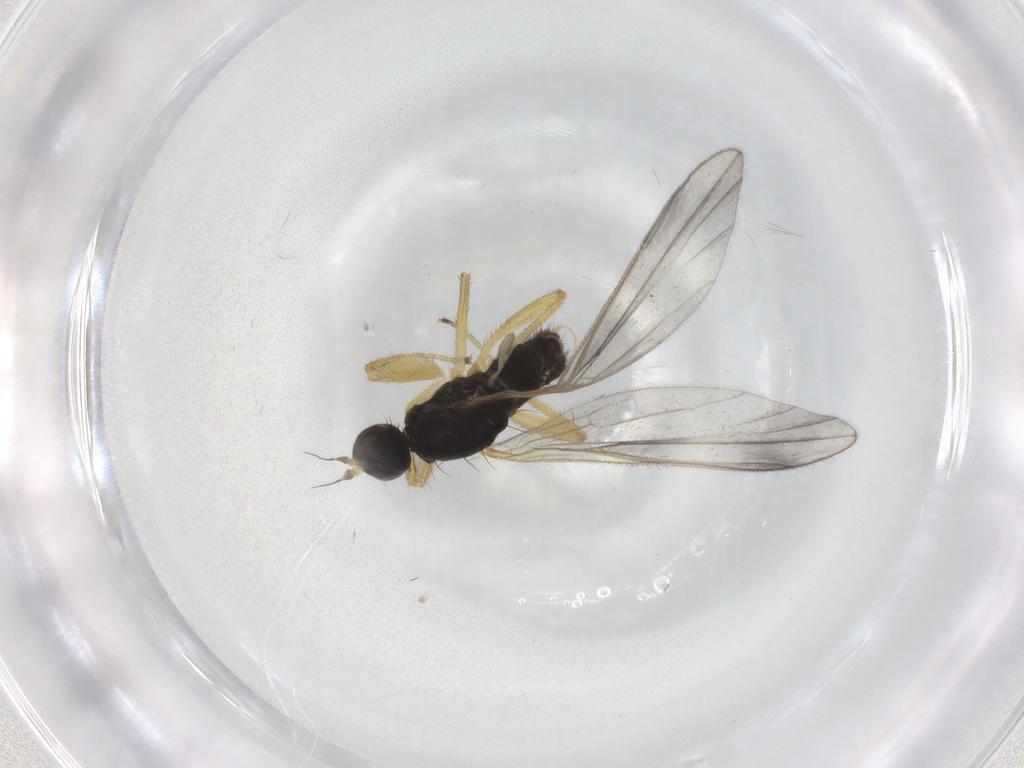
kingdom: Animalia
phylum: Arthropoda
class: Insecta
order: Diptera
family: Empididae
